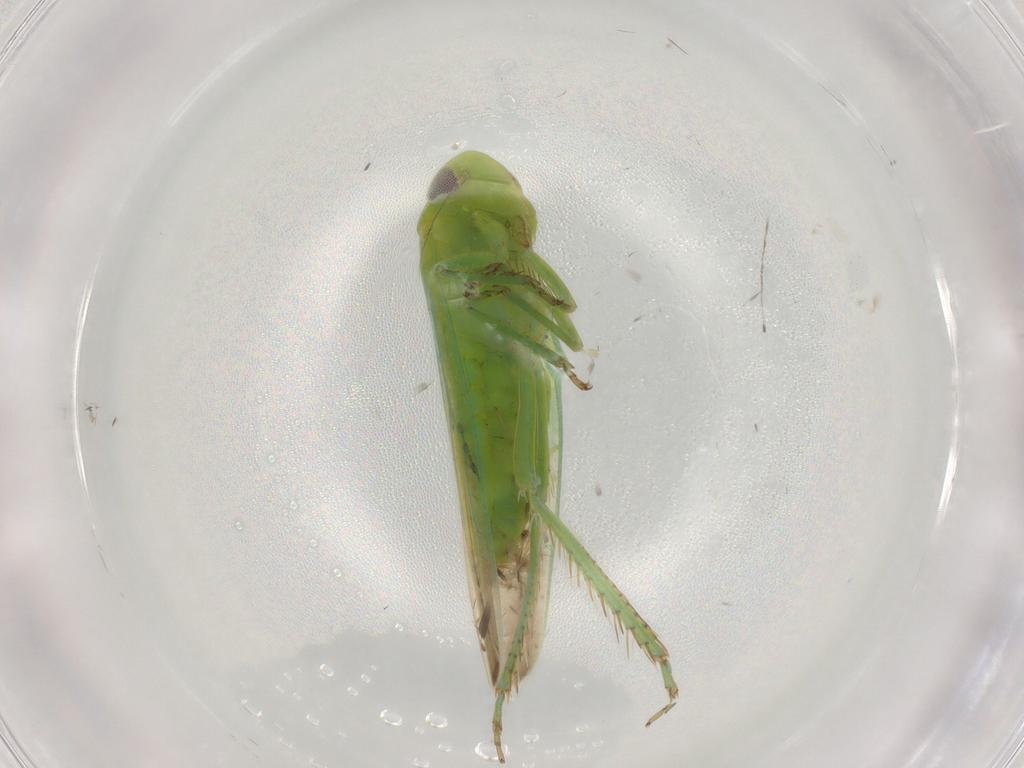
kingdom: Animalia
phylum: Arthropoda
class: Insecta
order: Hemiptera
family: Cicadellidae
